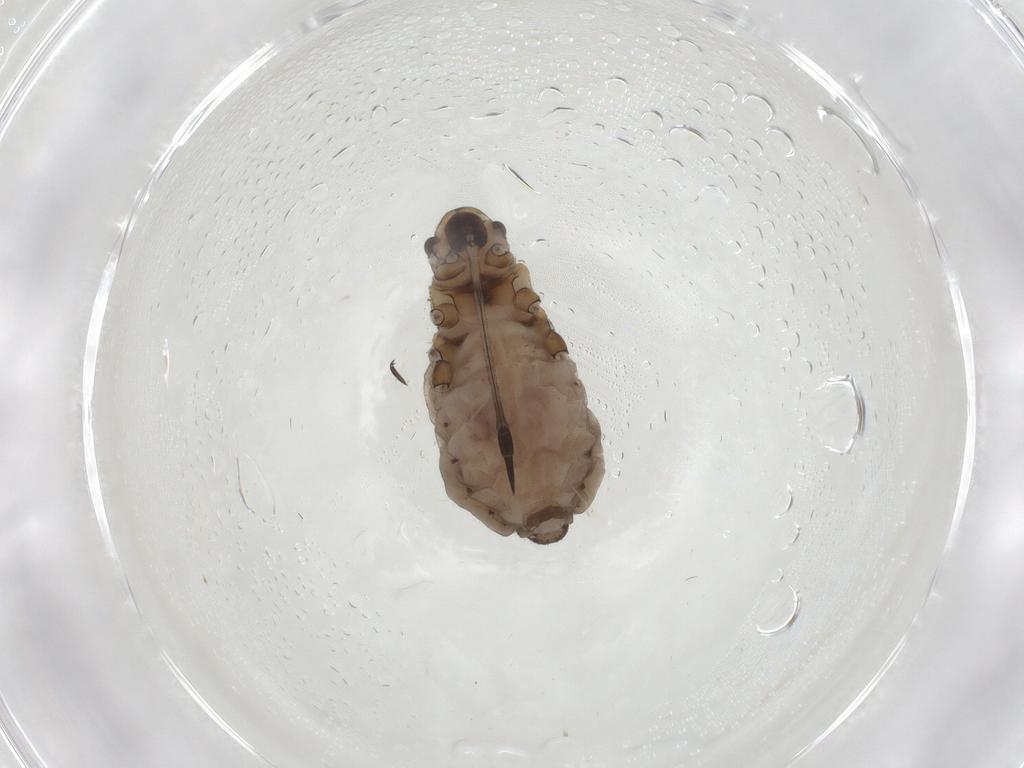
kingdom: Animalia
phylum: Arthropoda
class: Insecta
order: Hemiptera
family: Aphididae
